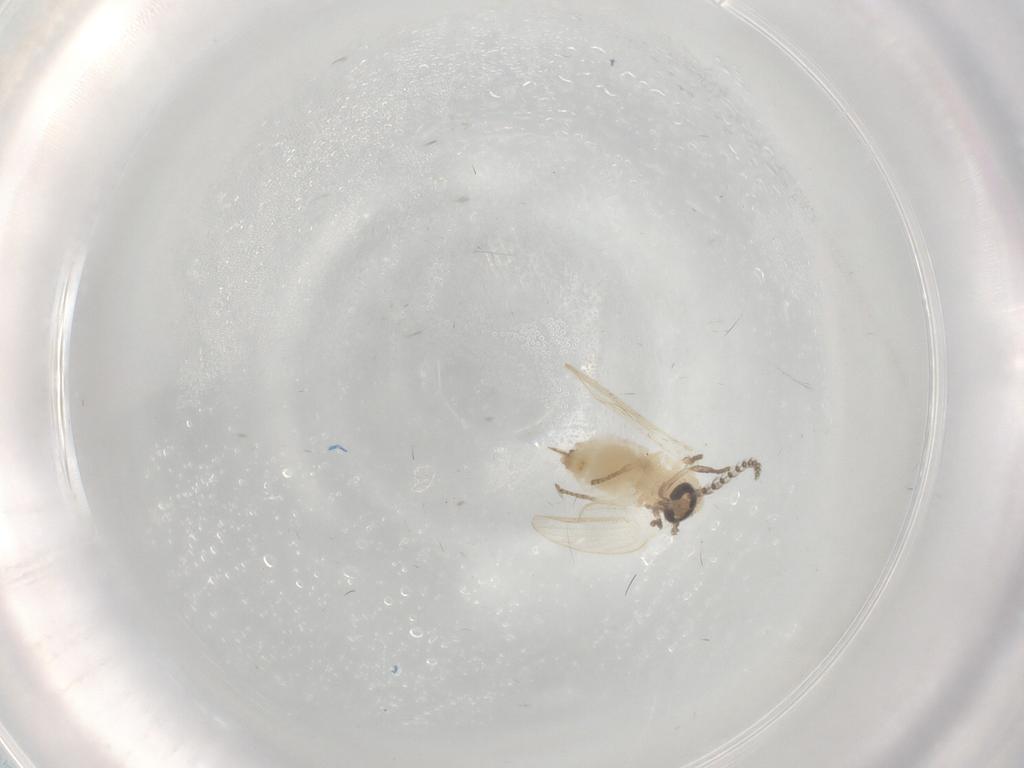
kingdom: Animalia
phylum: Arthropoda
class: Insecta
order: Diptera
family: Psychodidae
